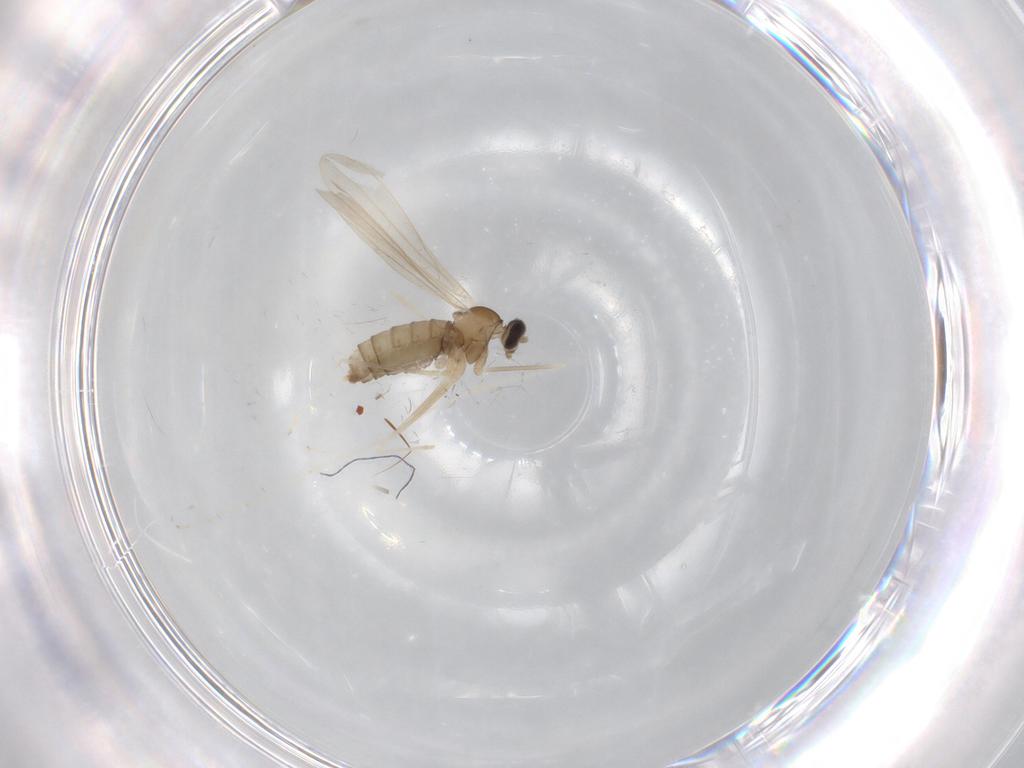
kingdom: Animalia
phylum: Arthropoda
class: Insecta
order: Diptera
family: Cecidomyiidae
